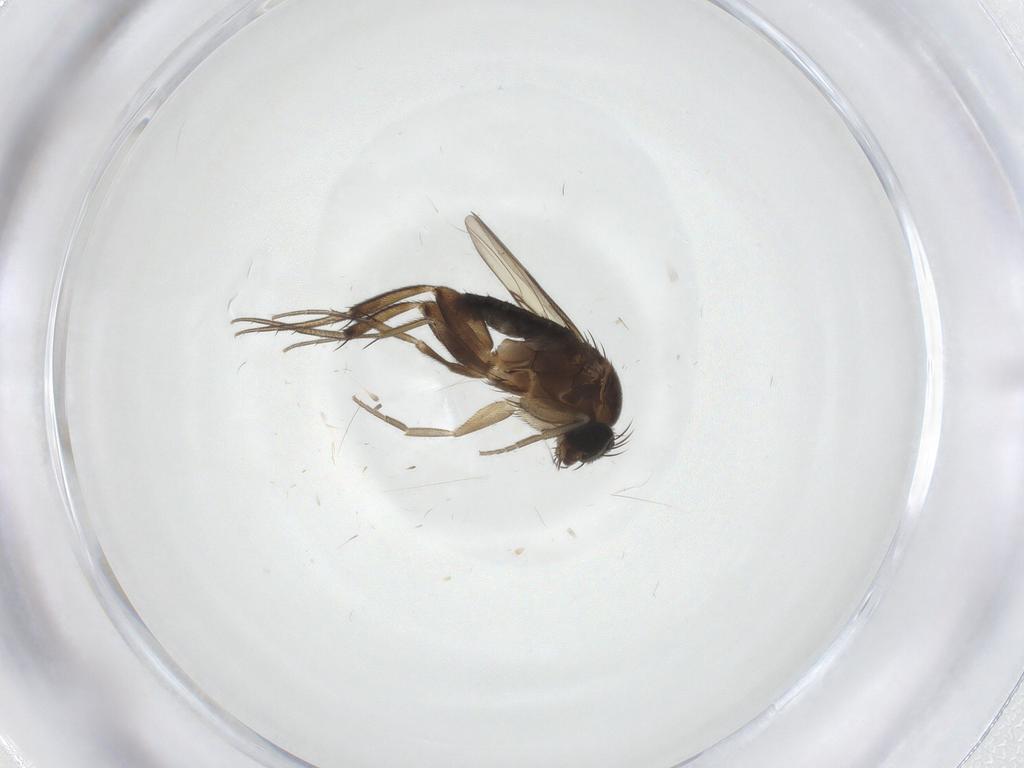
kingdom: Animalia
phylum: Arthropoda
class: Insecta
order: Diptera
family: Phoridae
